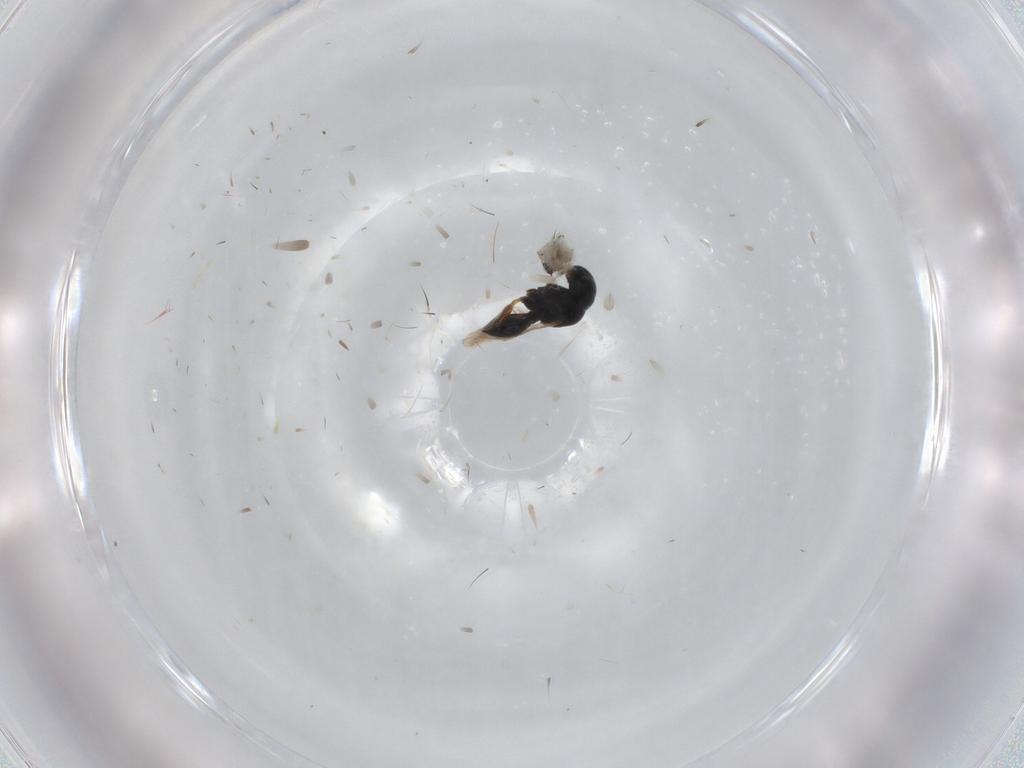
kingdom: Animalia
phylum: Arthropoda
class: Insecta
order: Hymenoptera
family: Scelionidae
